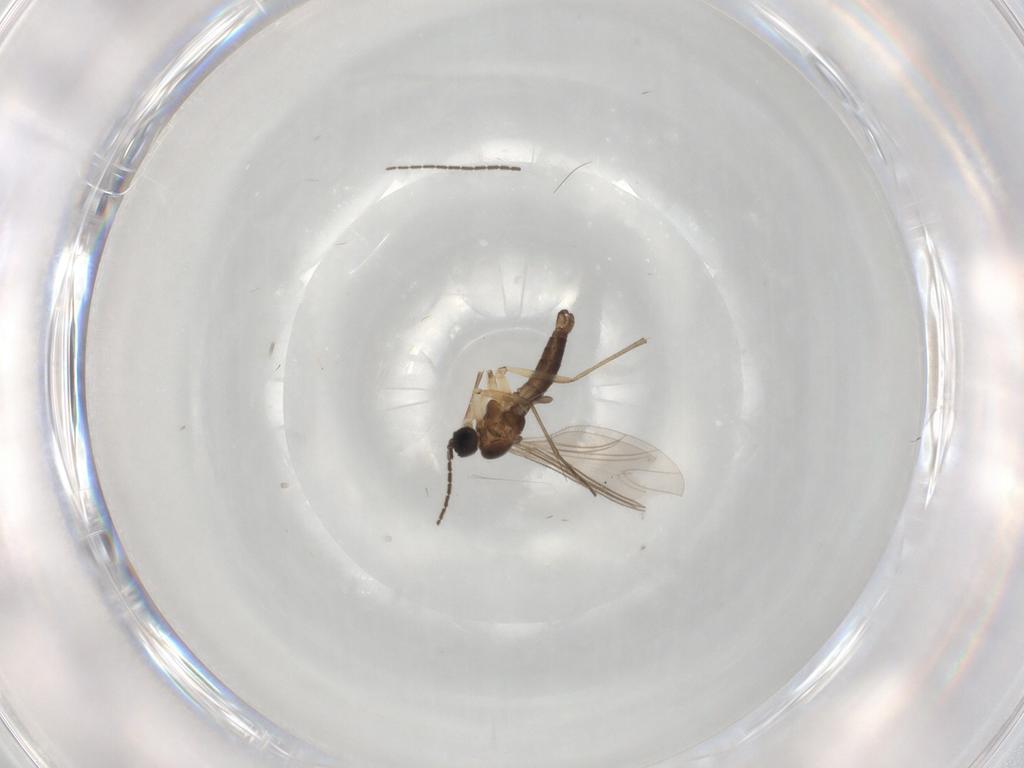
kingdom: Animalia
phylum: Arthropoda
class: Insecta
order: Diptera
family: Sciaridae
